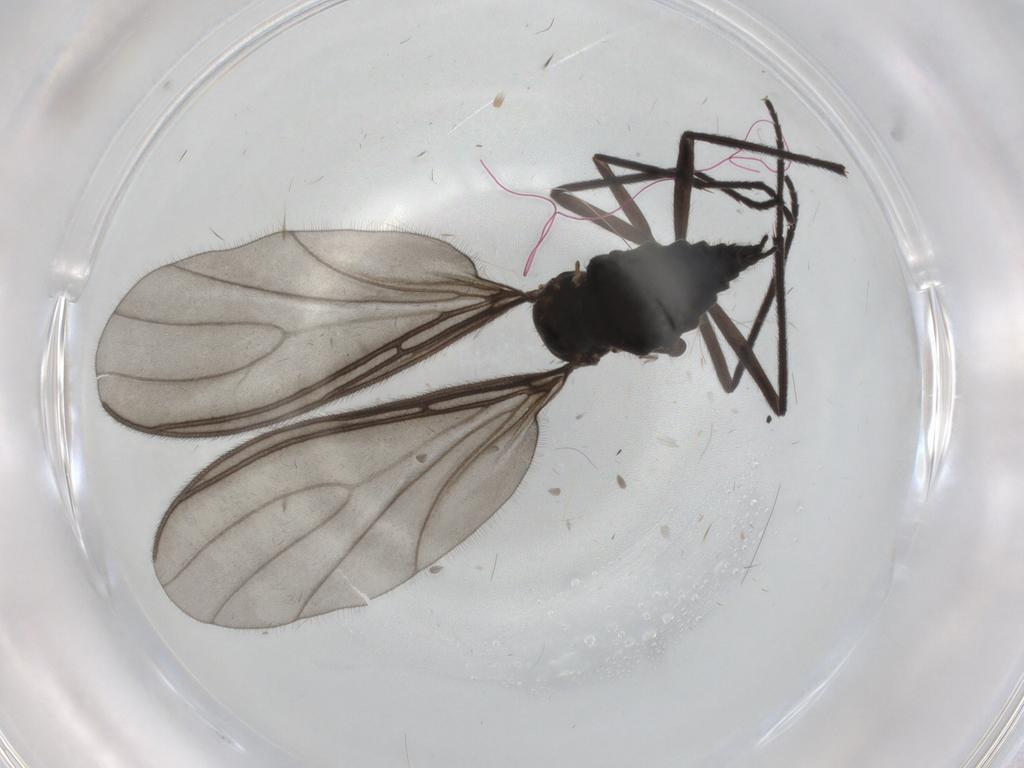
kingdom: Animalia
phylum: Arthropoda
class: Insecta
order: Diptera
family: Sciaridae
